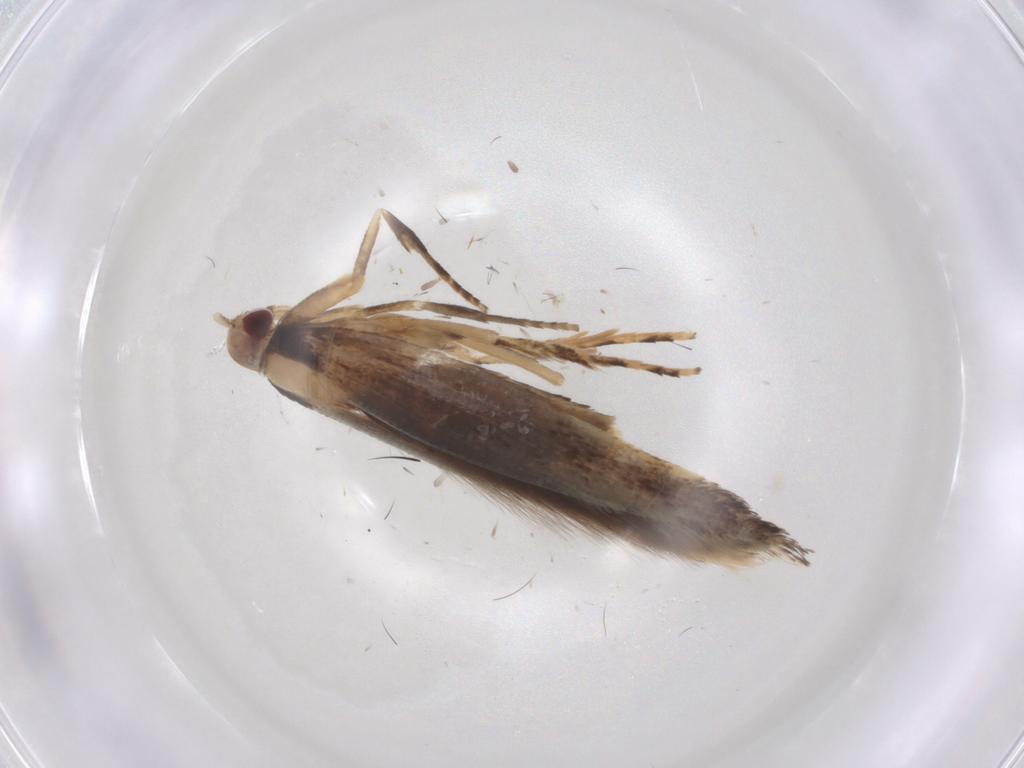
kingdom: Animalia
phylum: Arthropoda
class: Insecta
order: Lepidoptera
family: Cosmopterigidae
